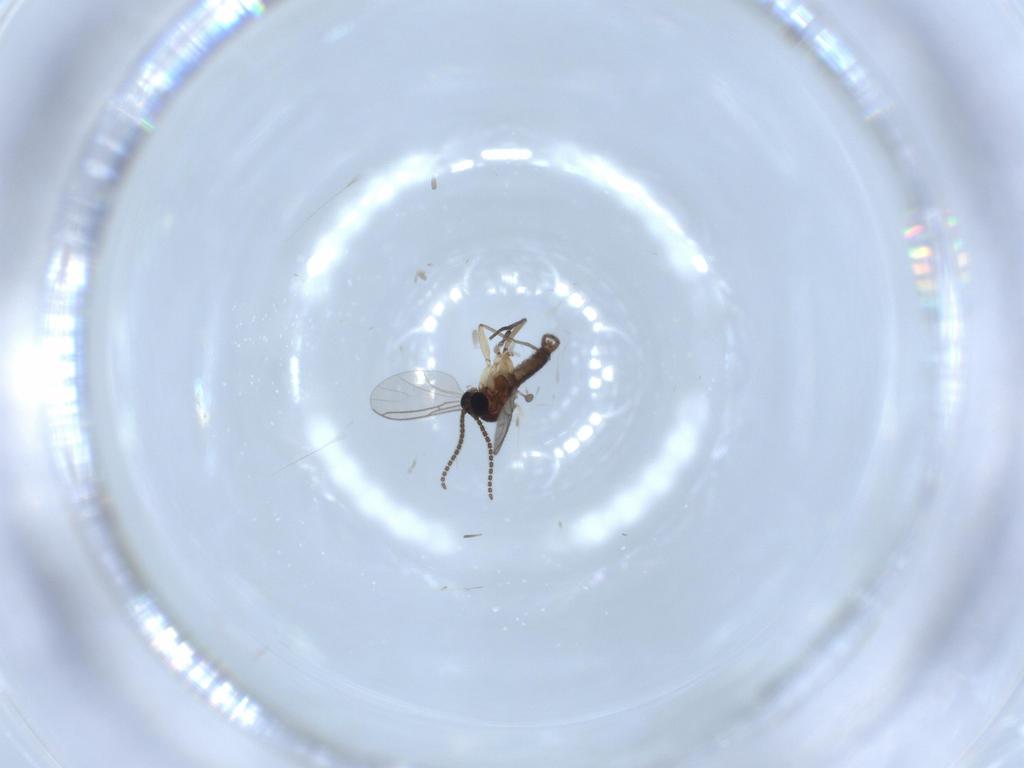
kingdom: Animalia
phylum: Arthropoda
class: Insecta
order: Diptera
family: Sciaridae
